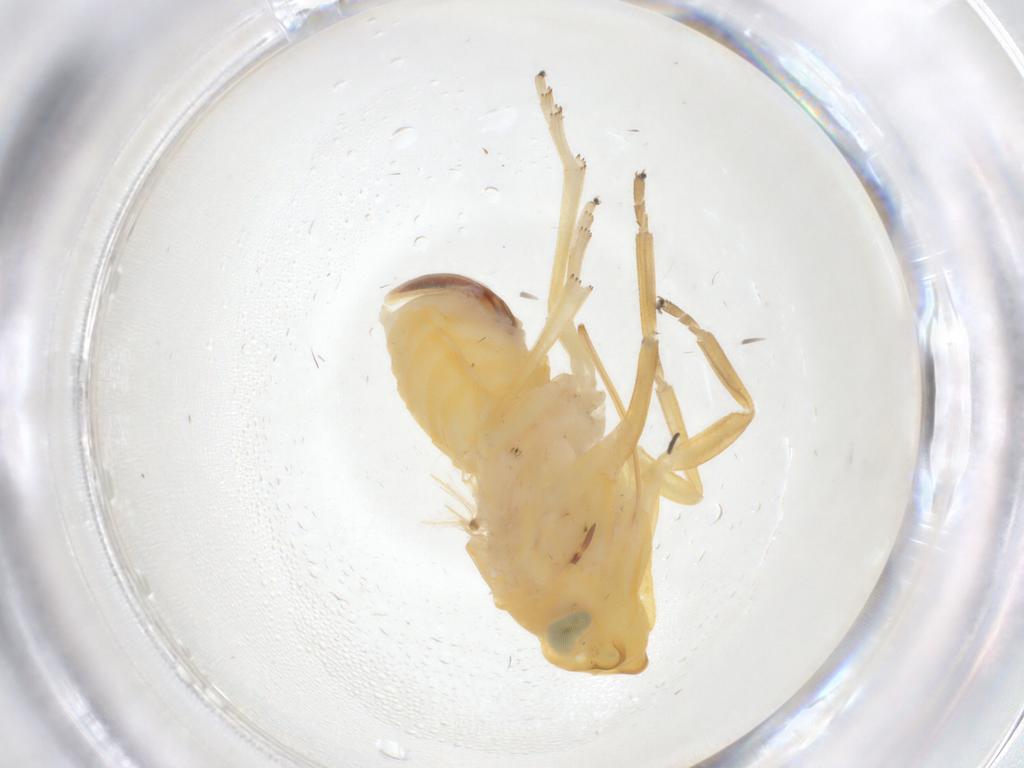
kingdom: Animalia
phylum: Arthropoda
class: Insecta
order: Hemiptera
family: Cixiidae
